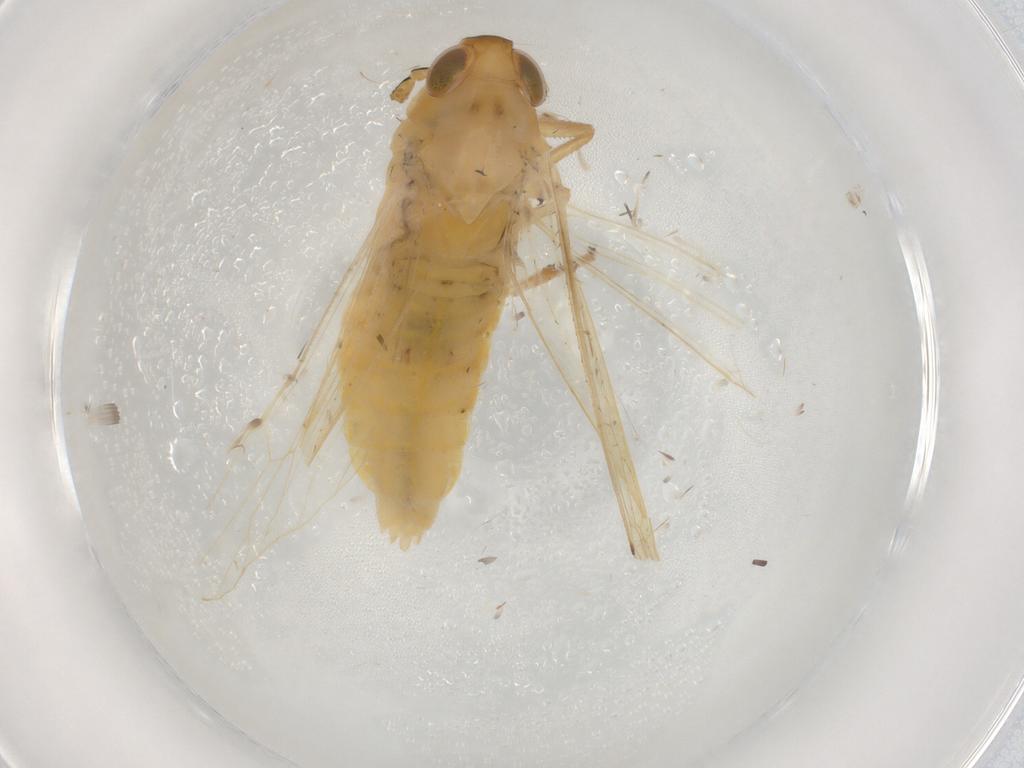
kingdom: Animalia
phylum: Arthropoda
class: Insecta
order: Hemiptera
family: Delphacidae
